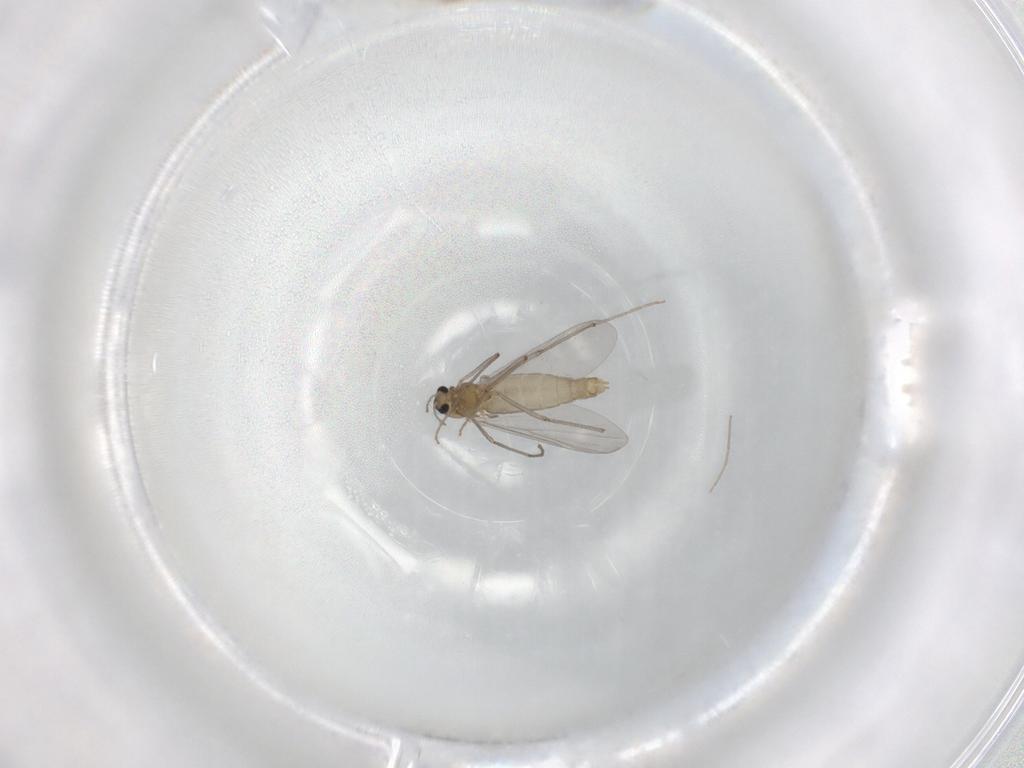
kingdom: Animalia
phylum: Arthropoda
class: Insecta
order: Diptera
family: Chironomidae
